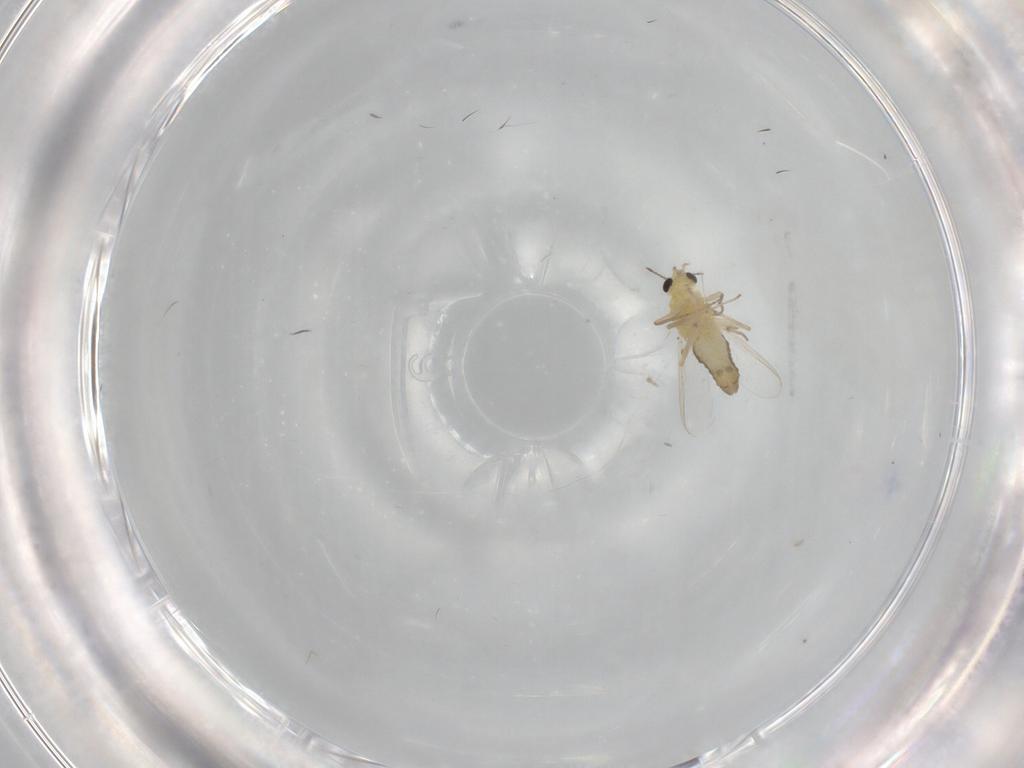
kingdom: Animalia
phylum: Arthropoda
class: Insecta
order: Diptera
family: Chironomidae
